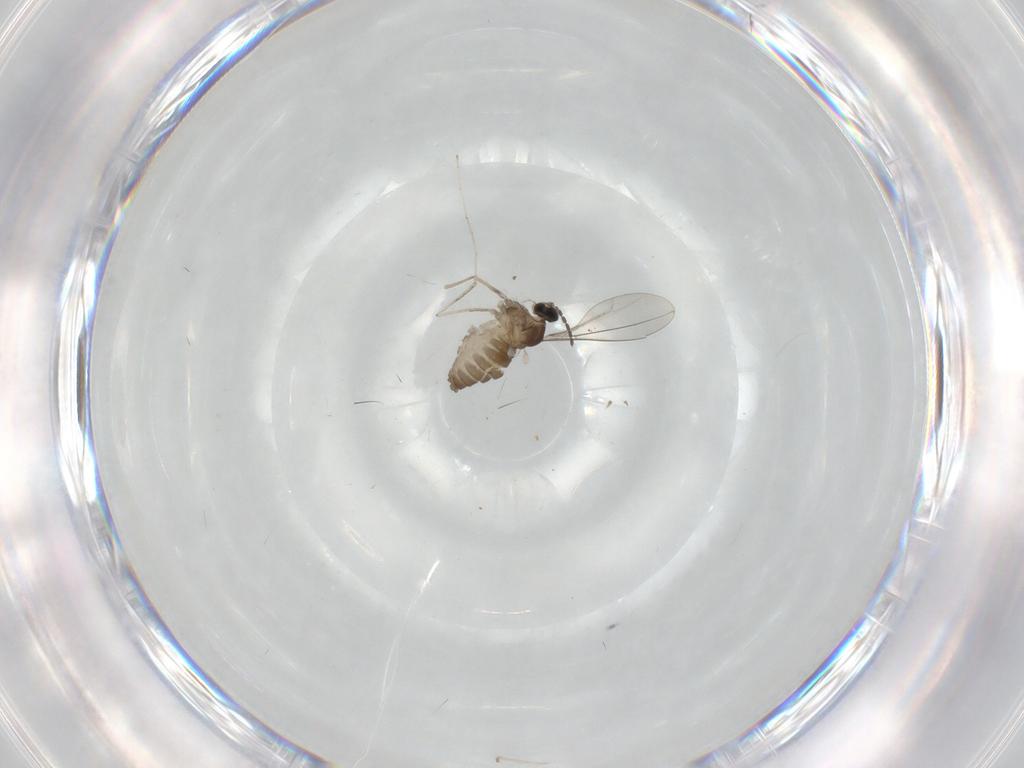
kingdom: Animalia
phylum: Arthropoda
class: Insecta
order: Diptera
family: Cecidomyiidae
